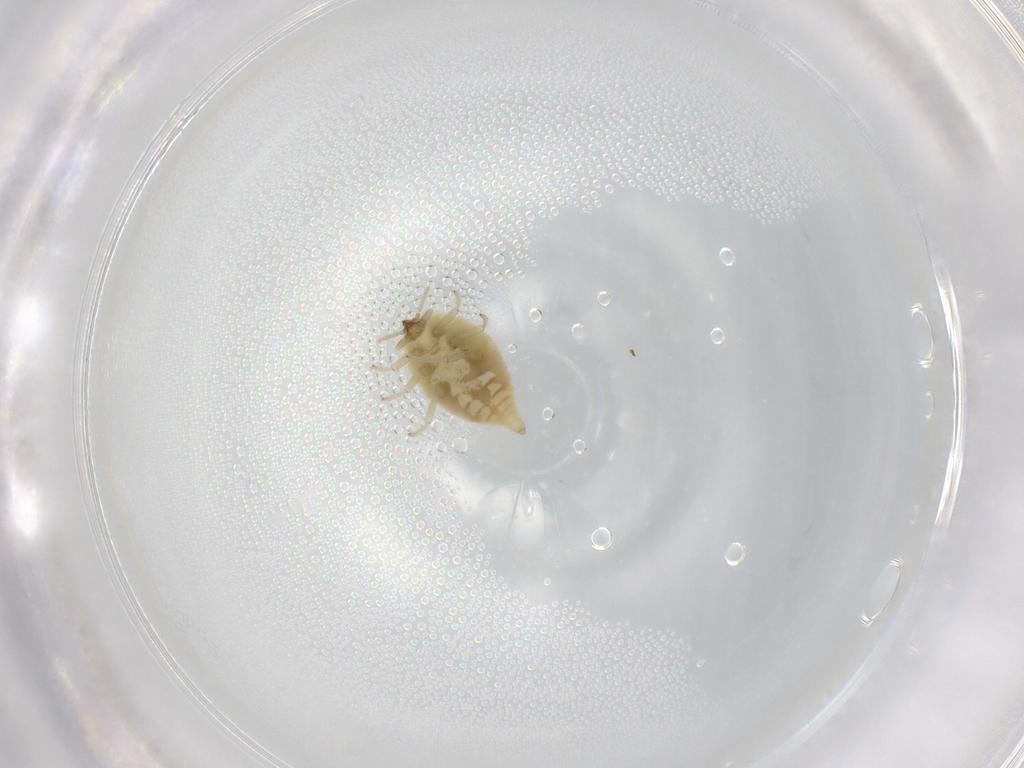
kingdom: Animalia
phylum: Arthropoda
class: Insecta
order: Neuroptera
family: Coniopterygidae
